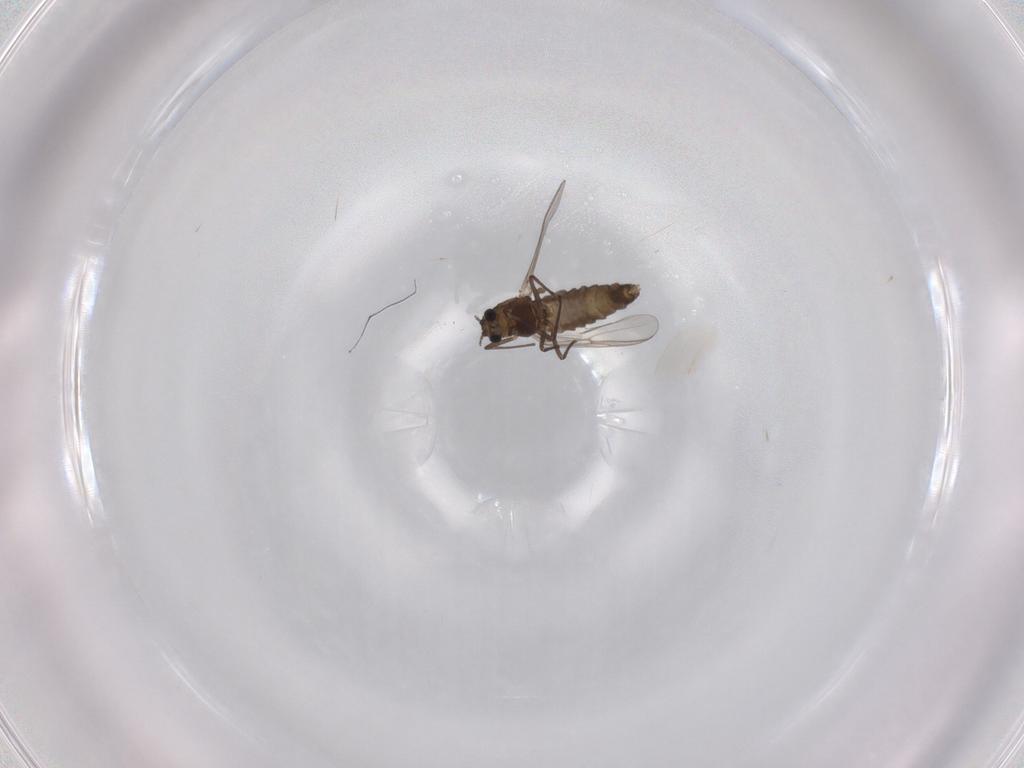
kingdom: Animalia
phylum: Arthropoda
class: Insecta
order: Diptera
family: Chironomidae
